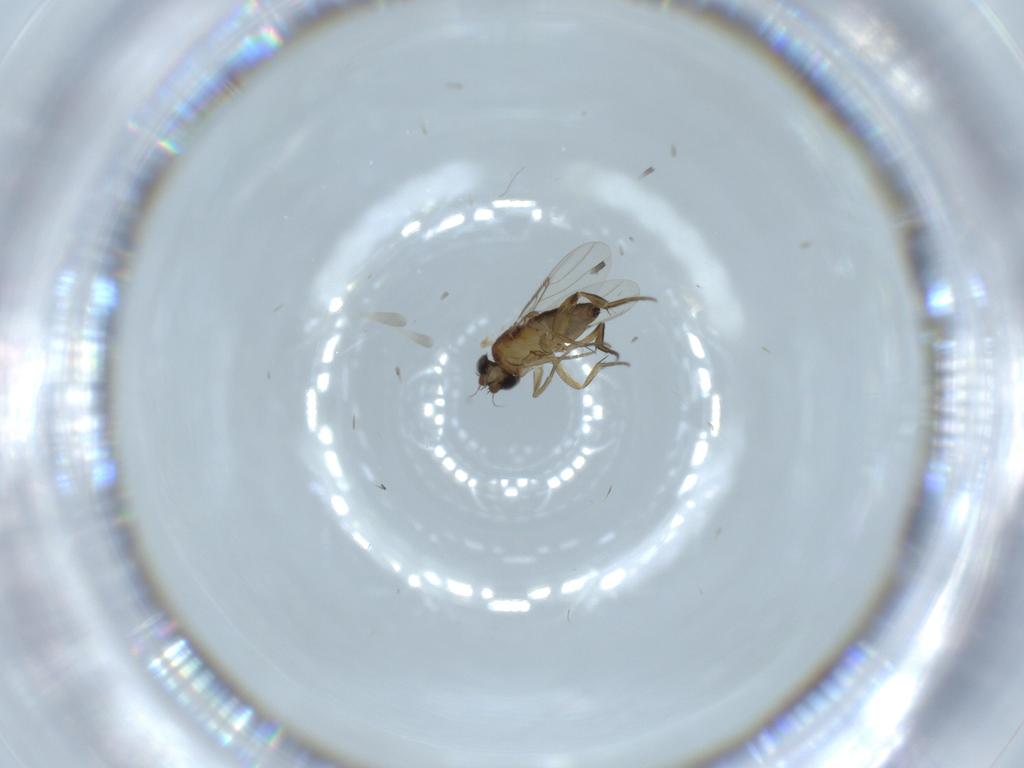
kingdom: Animalia
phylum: Arthropoda
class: Insecta
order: Diptera
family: Phoridae
